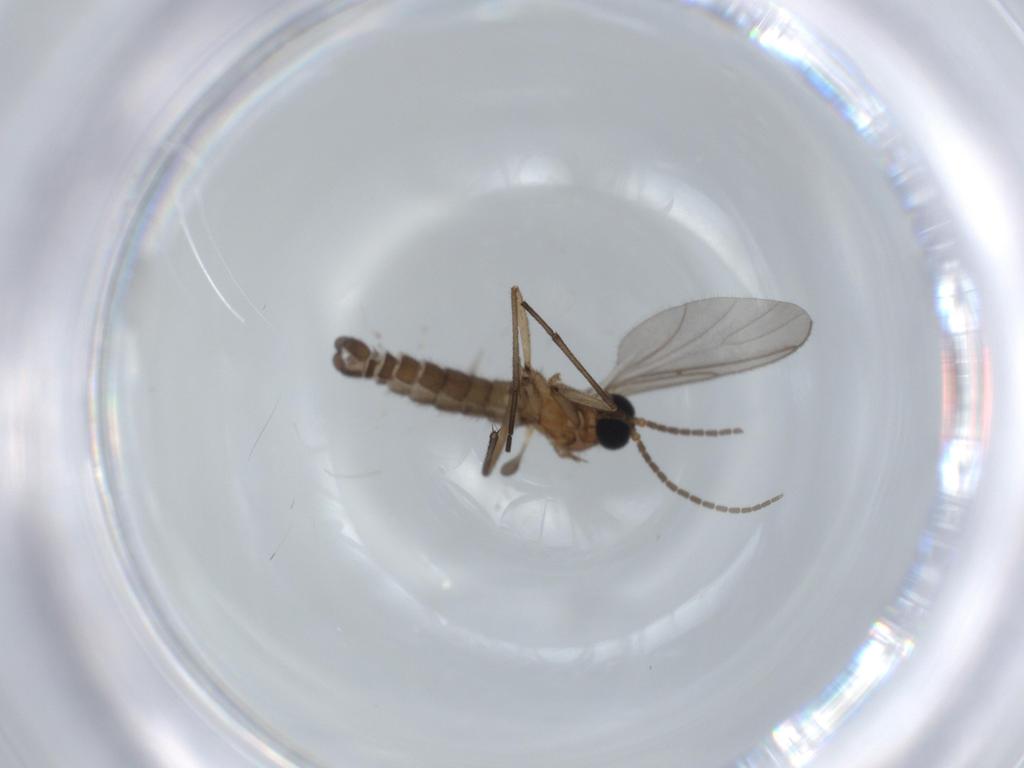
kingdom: Animalia
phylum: Arthropoda
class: Insecta
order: Diptera
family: Sciaridae
